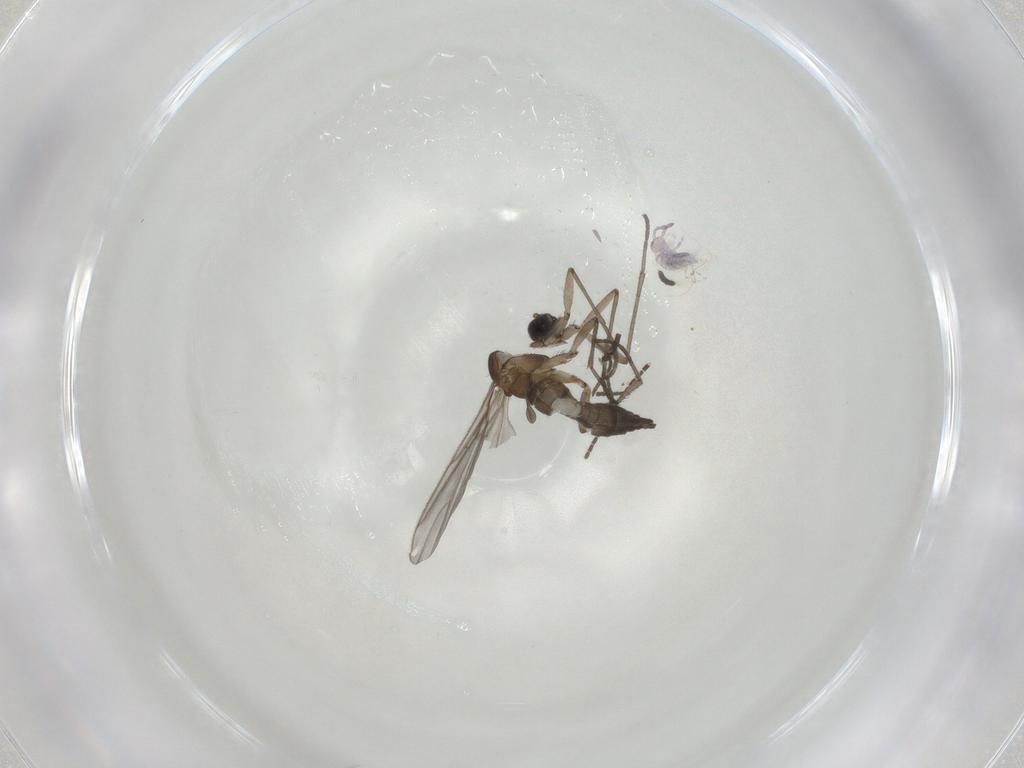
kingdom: Animalia
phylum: Arthropoda
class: Insecta
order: Diptera
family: Sciaridae
